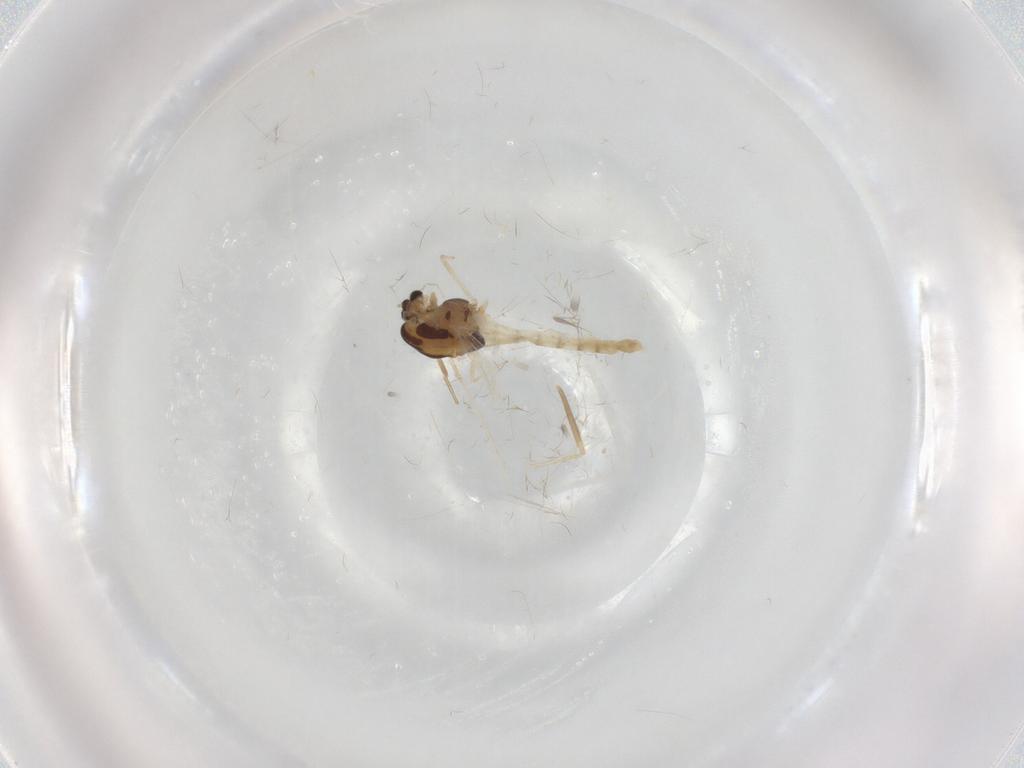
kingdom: Animalia
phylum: Arthropoda
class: Insecta
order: Diptera
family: Chironomidae
